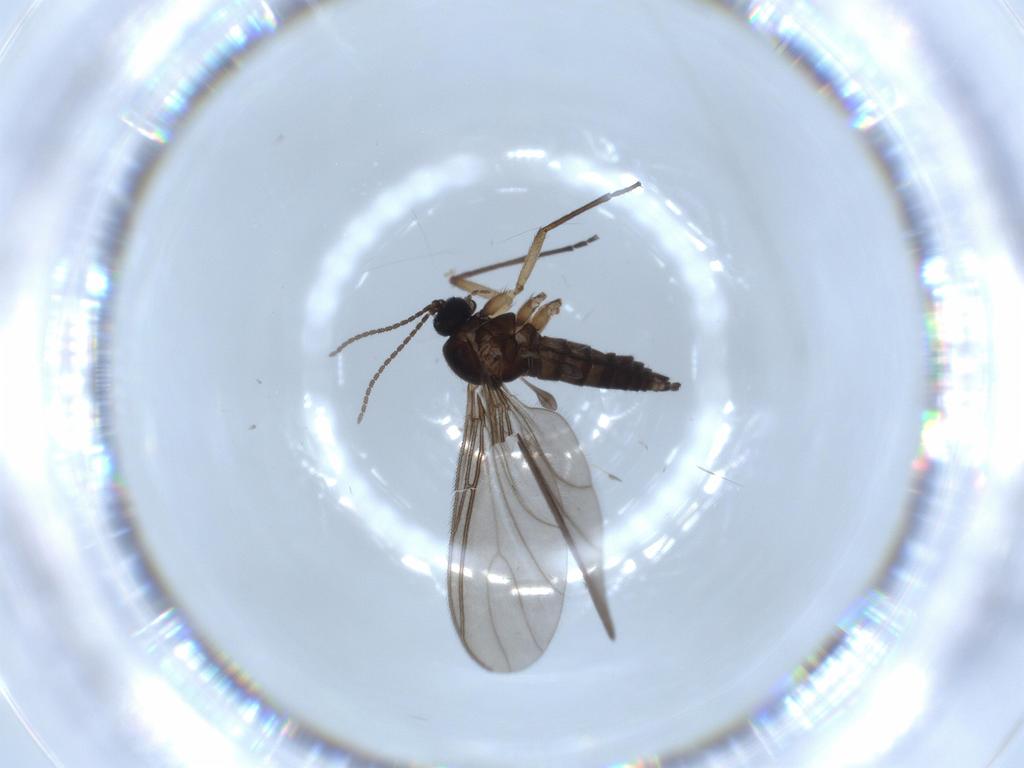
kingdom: Animalia
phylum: Arthropoda
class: Insecta
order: Diptera
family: Sciaridae
